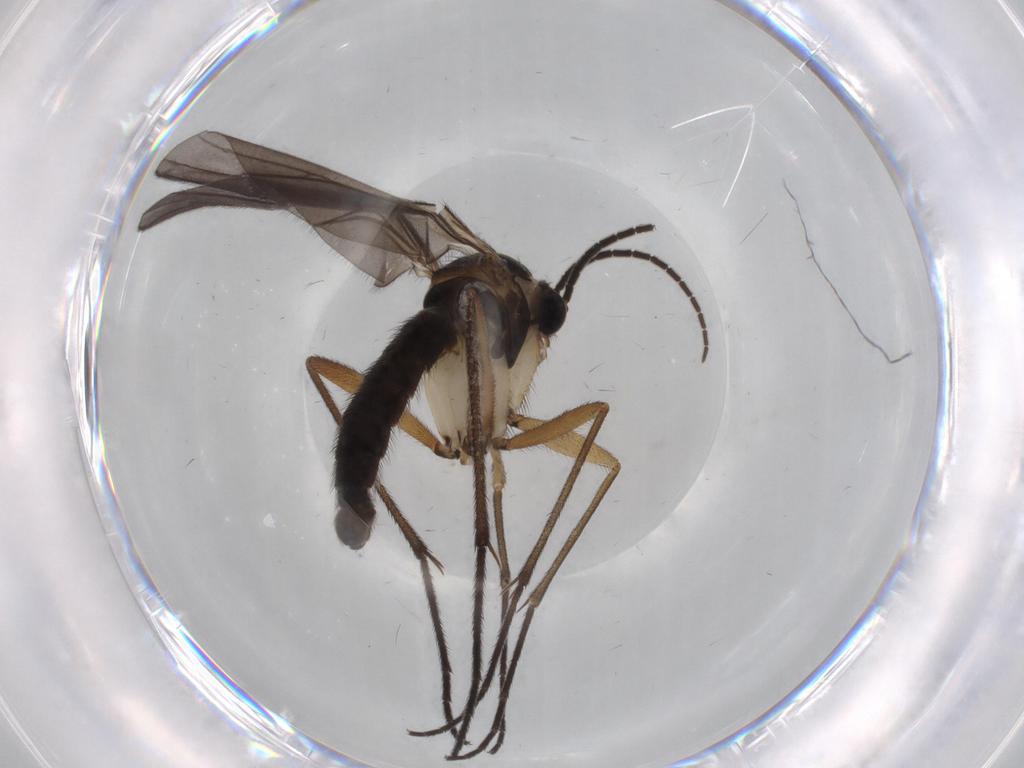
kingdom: Animalia
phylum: Arthropoda
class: Insecta
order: Diptera
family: Sciaridae
